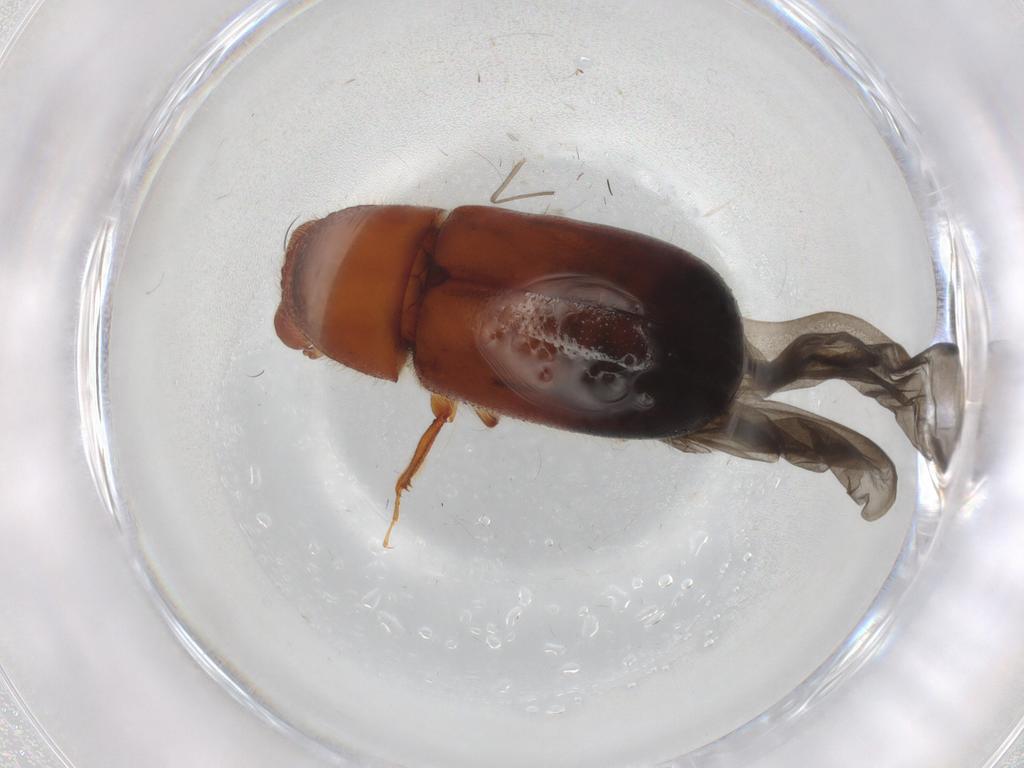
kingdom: Animalia
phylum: Arthropoda
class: Insecta
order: Coleoptera
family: Curculionidae
